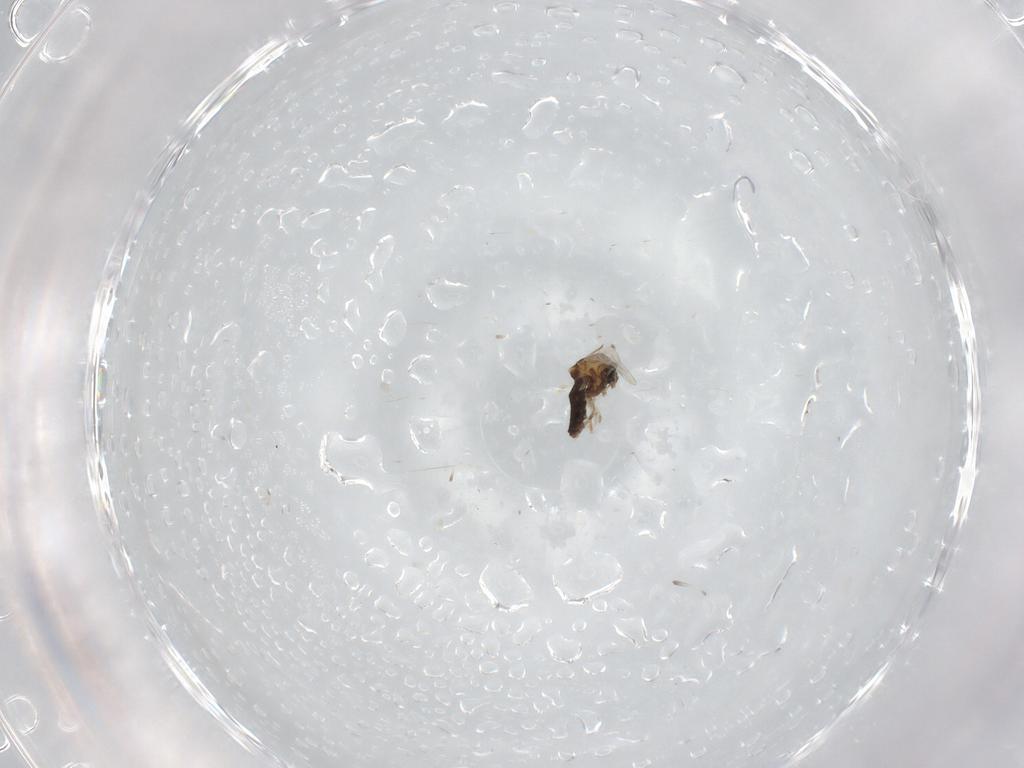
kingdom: Animalia
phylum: Arthropoda
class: Insecta
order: Diptera
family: Ceratopogonidae
